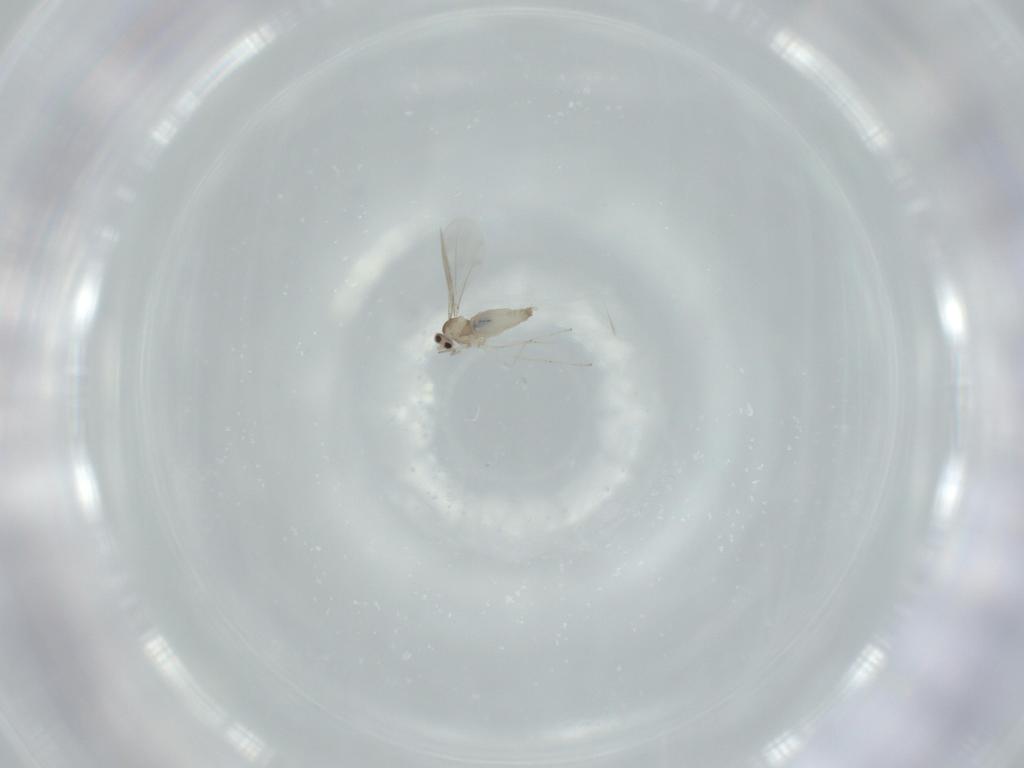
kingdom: Animalia
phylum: Arthropoda
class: Insecta
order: Diptera
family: Cecidomyiidae
